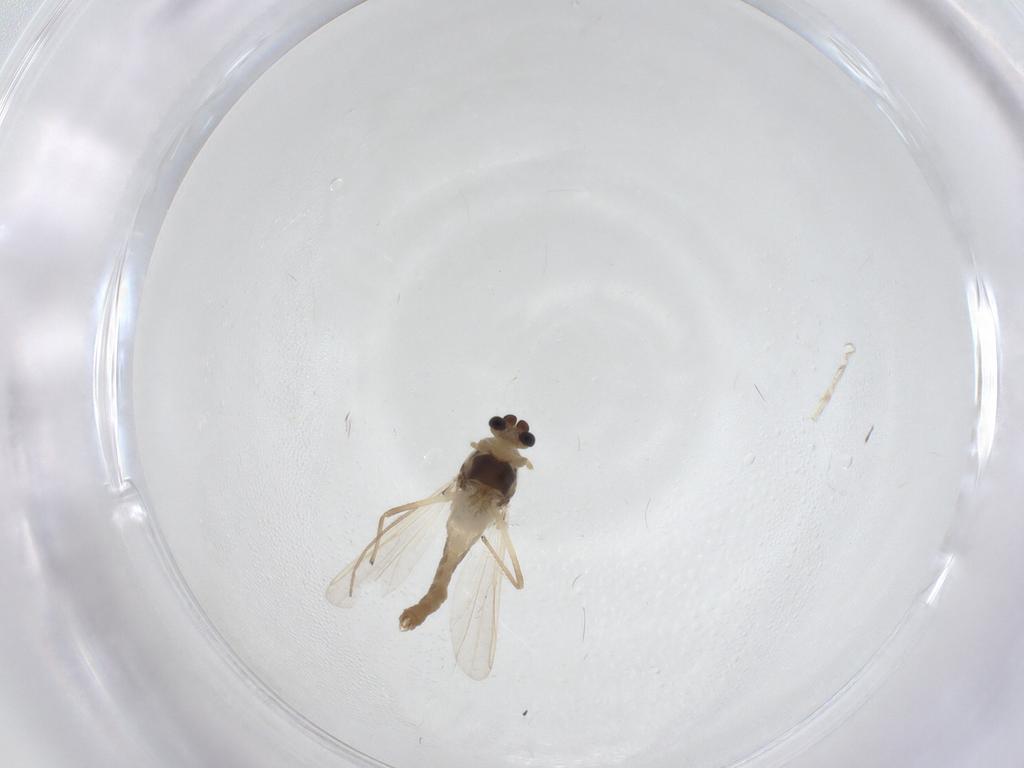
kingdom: Animalia
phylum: Arthropoda
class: Insecta
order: Diptera
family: Chironomidae
